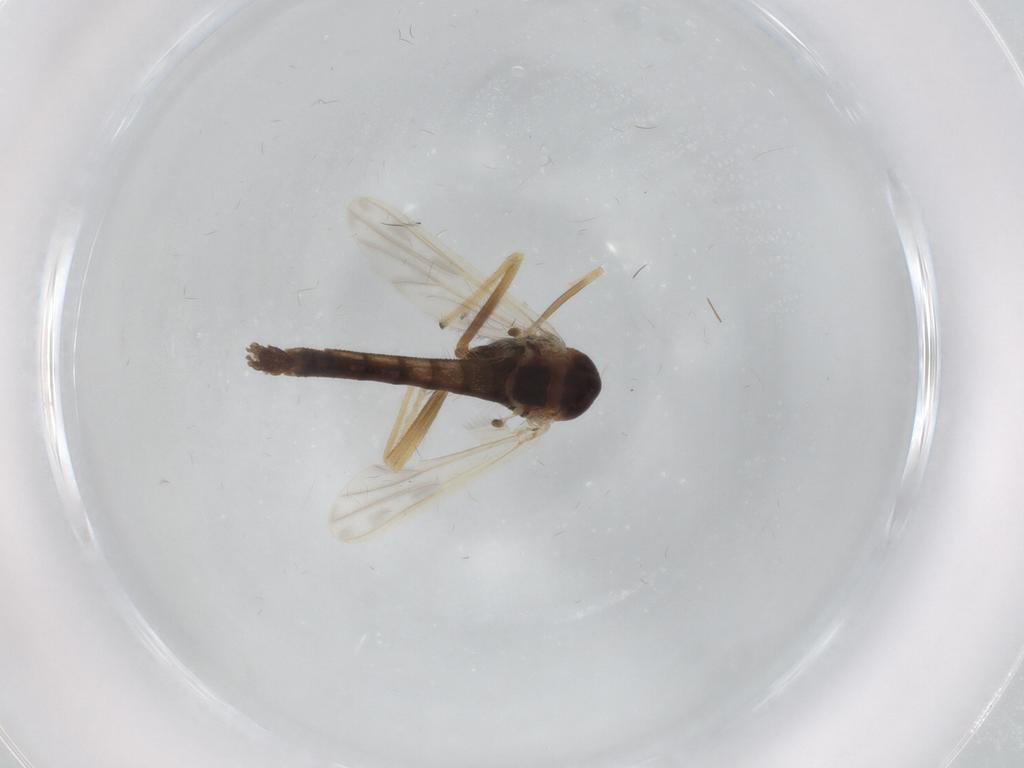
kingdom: Animalia
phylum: Arthropoda
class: Insecta
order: Diptera
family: Chironomidae
